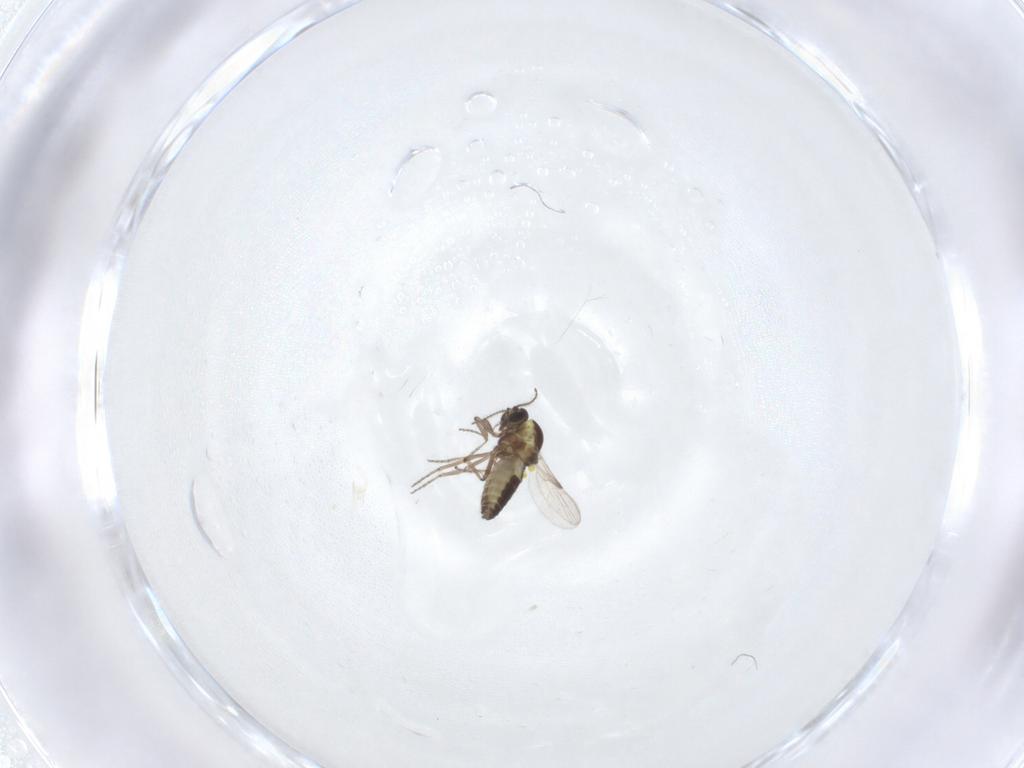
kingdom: Animalia
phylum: Arthropoda
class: Insecta
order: Diptera
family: Ceratopogonidae
